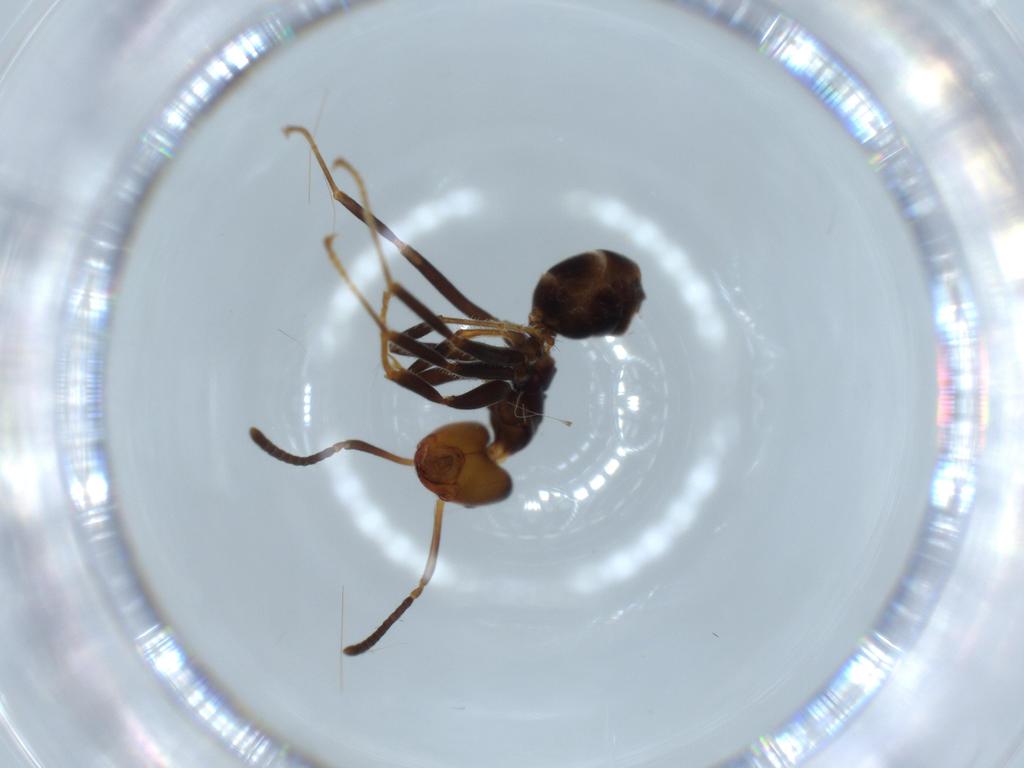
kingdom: Animalia
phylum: Arthropoda
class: Insecta
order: Hymenoptera
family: Formicidae
